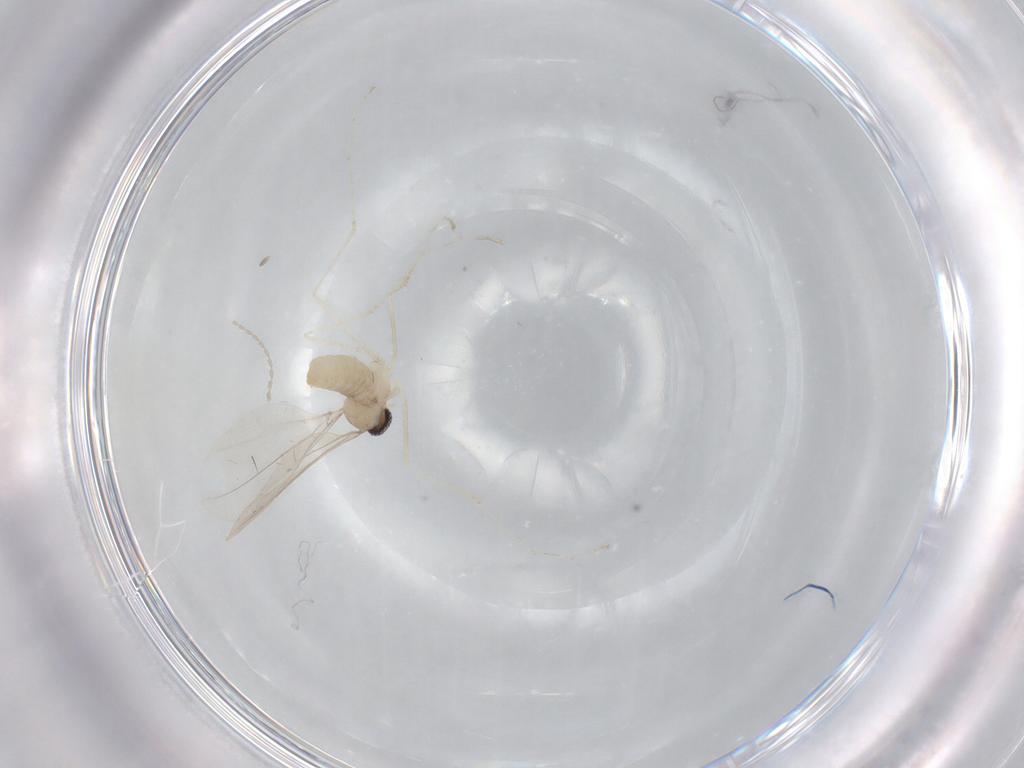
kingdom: Animalia
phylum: Arthropoda
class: Insecta
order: Diptera
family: Cecidomyiidae
